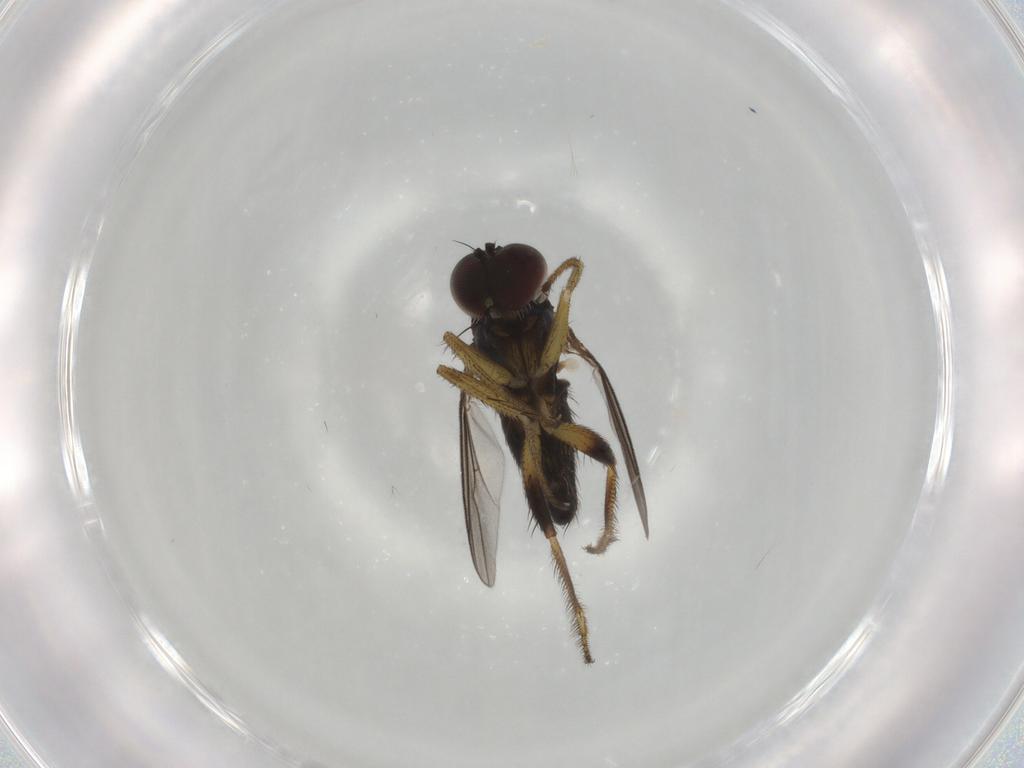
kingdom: Animalia
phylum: Arthropoda
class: Insecta
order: Diptera
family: Dolichopodidae
